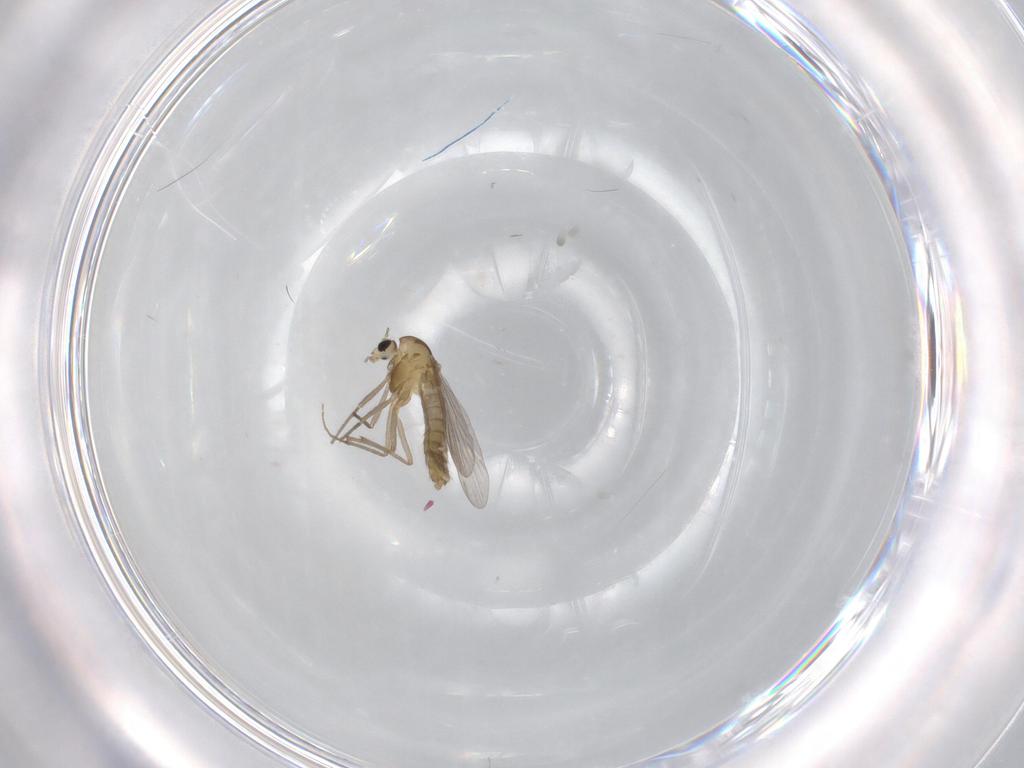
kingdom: Animalia
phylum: Arthropoda
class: Insecta
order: Diptera
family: Chironomidae
